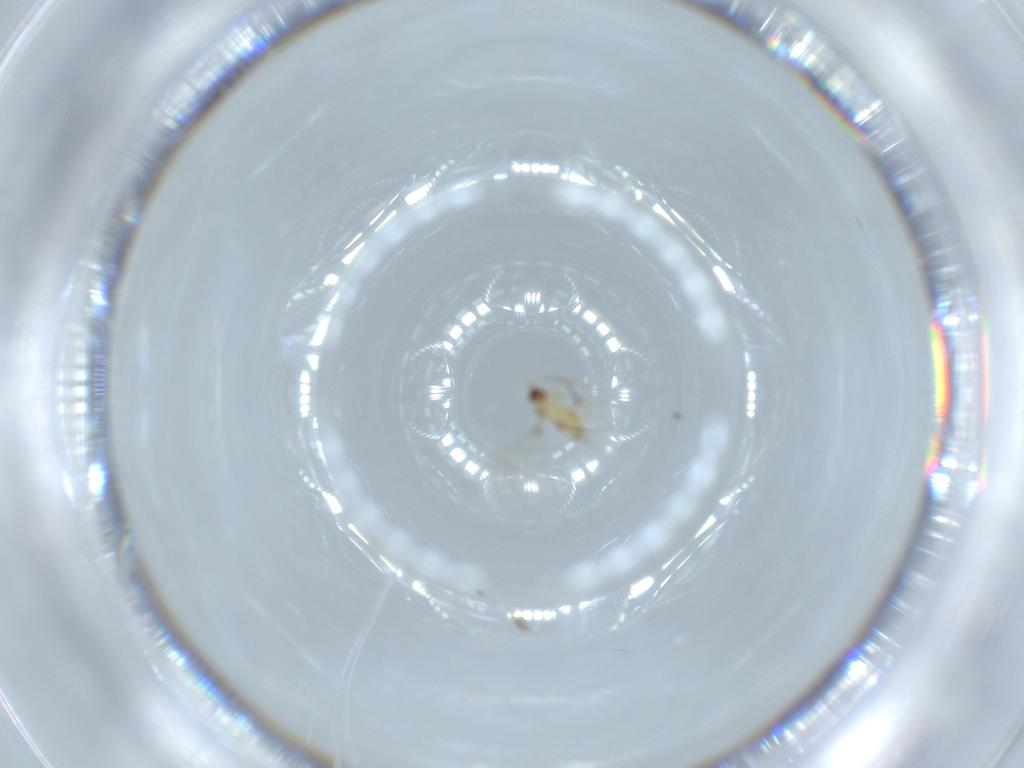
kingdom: Animalia
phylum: Arthropoda
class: Insecta
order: Hymenoptera
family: Mymaridae
